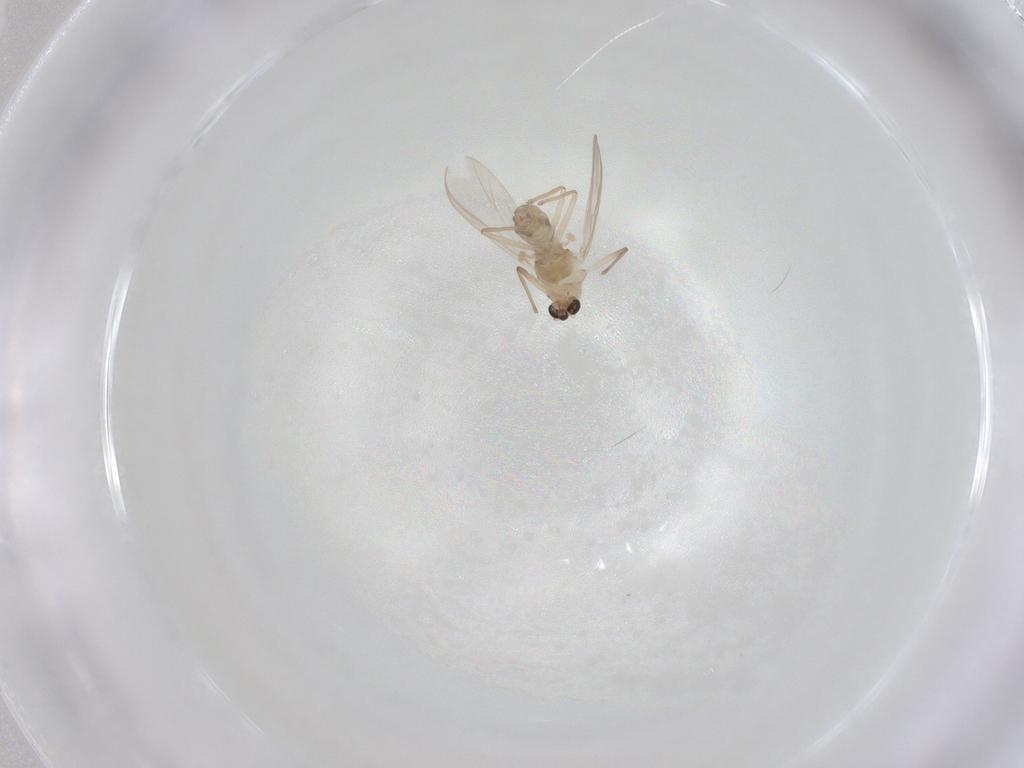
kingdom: Animalia
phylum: Arthropoda
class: Insecta
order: Diptera
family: Chironomidae
